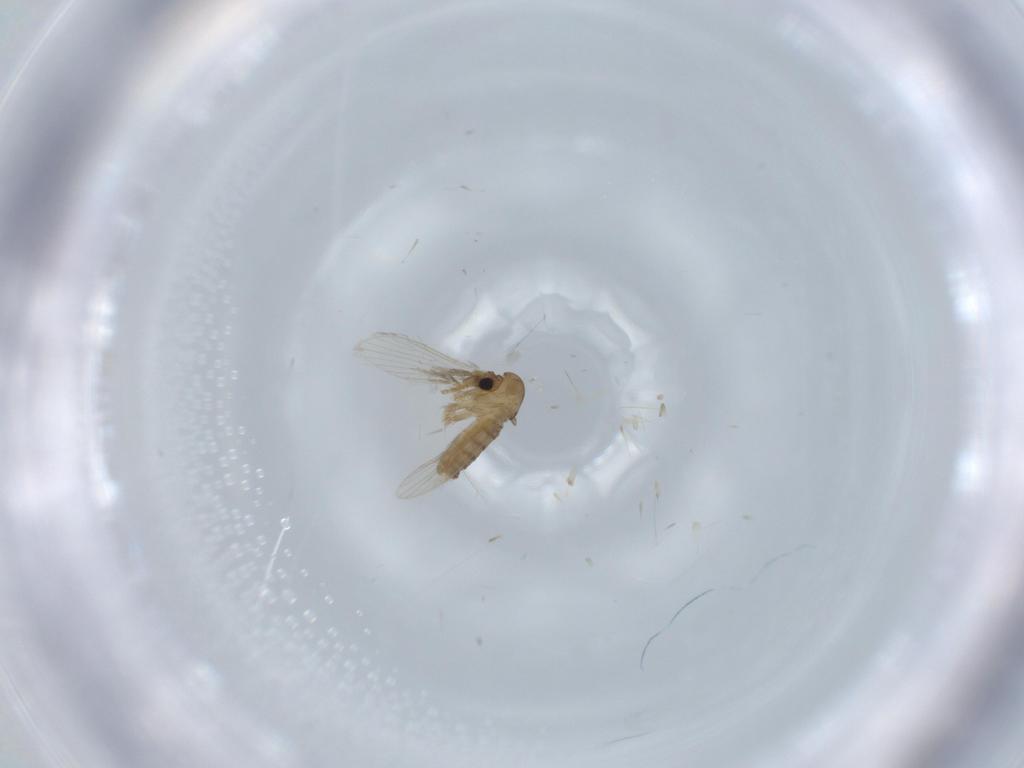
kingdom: Animalia
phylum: Arthropoda
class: Insecta
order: Diptera
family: Psychodidae
